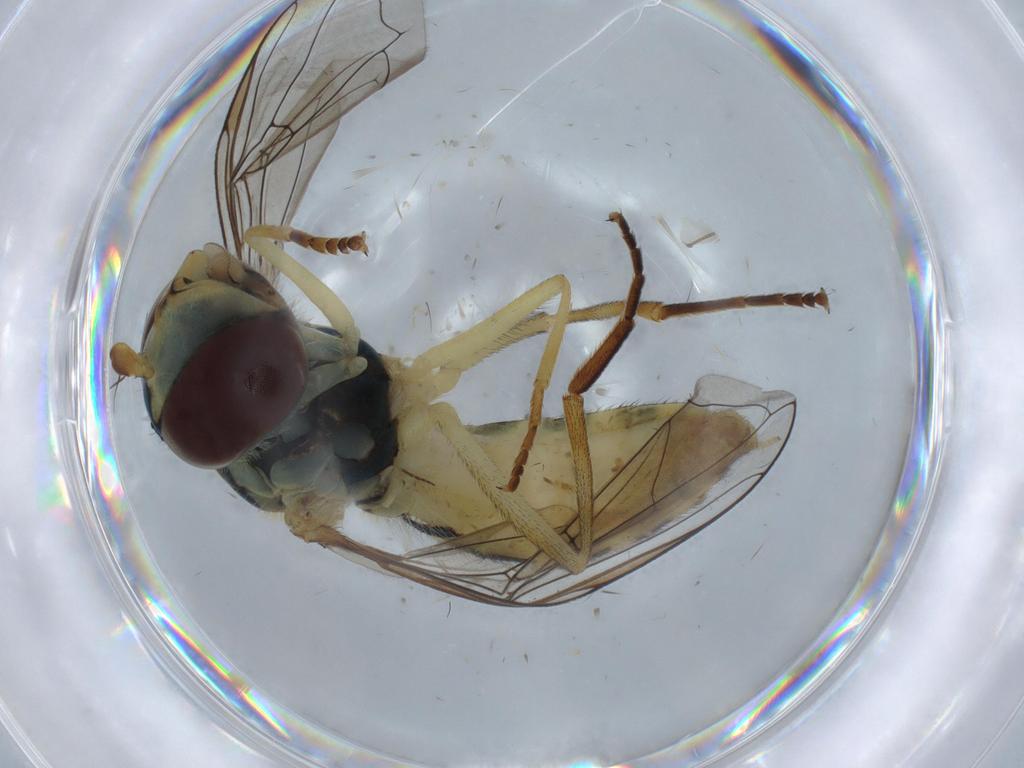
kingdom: Animalia
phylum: Arthropoda
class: Insecta
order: Diptera
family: Syrphidae
